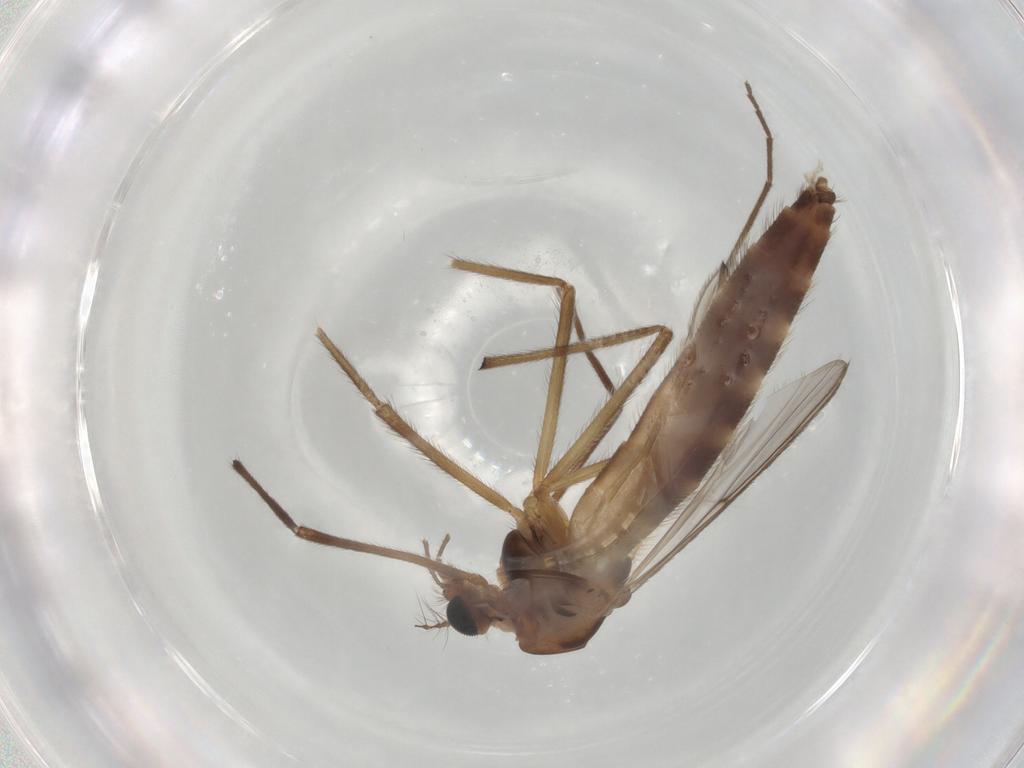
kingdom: Animalia
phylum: Arthropoda
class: Insecta
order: Diptera
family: Chironomidae
